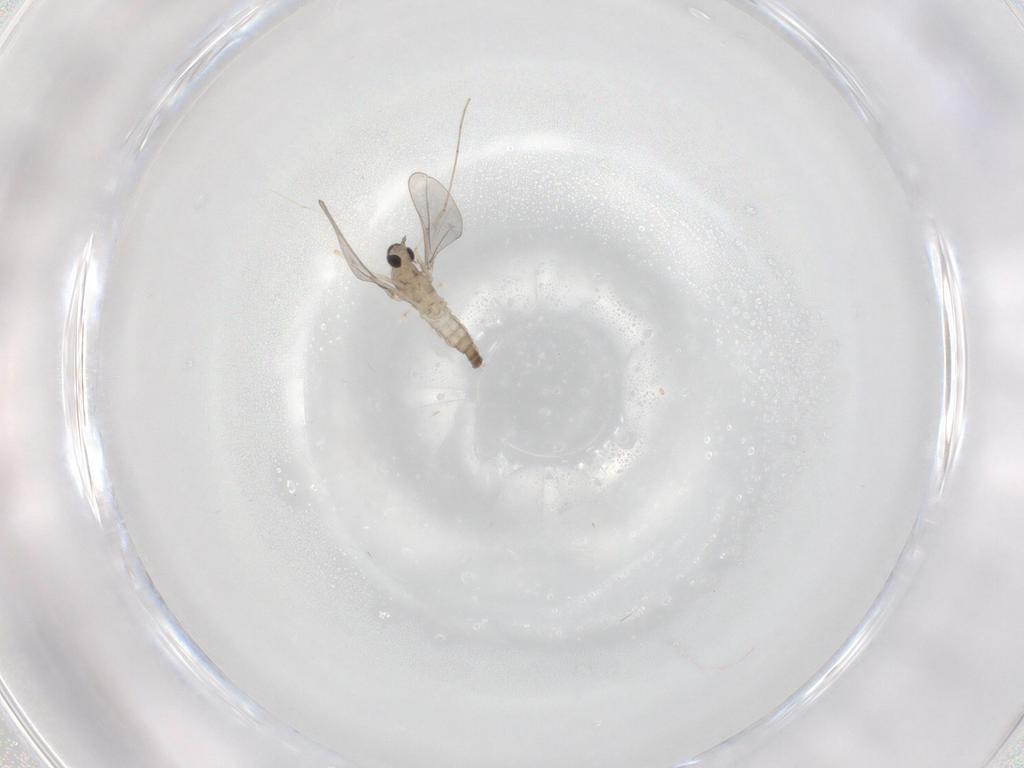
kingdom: Animalia
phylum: Arthropoda
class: Insecta
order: Diptera
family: Cecidomyiidae
